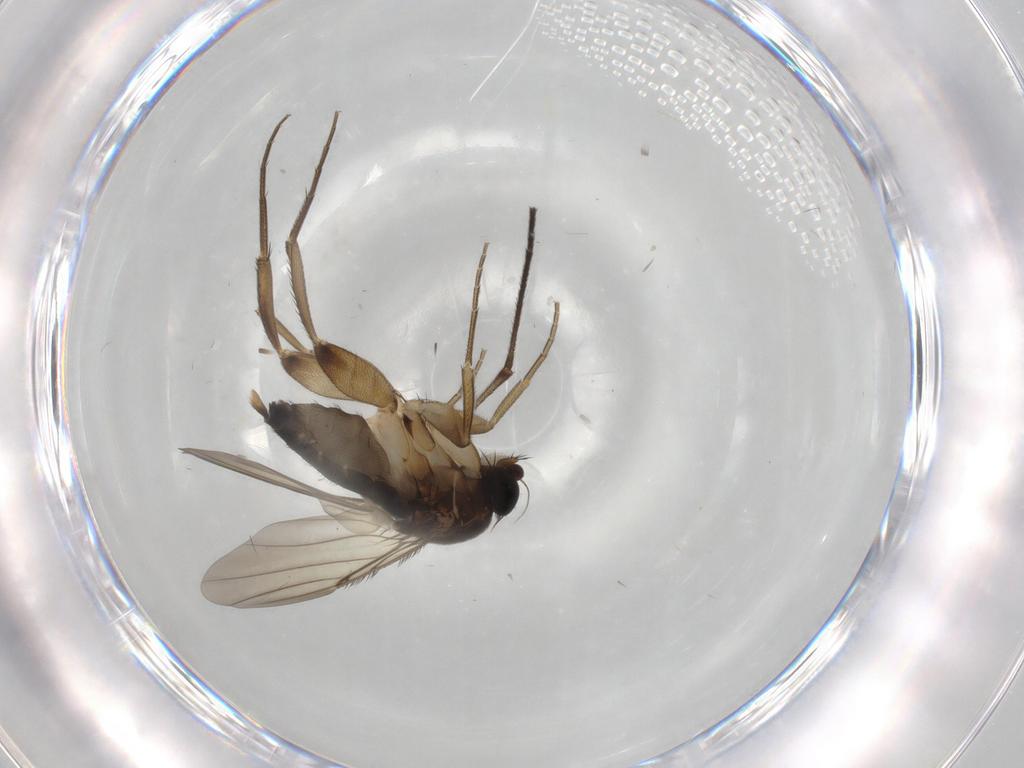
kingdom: Animalia
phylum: Arthropoda
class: Insecta
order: Diptera
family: Phoridae
